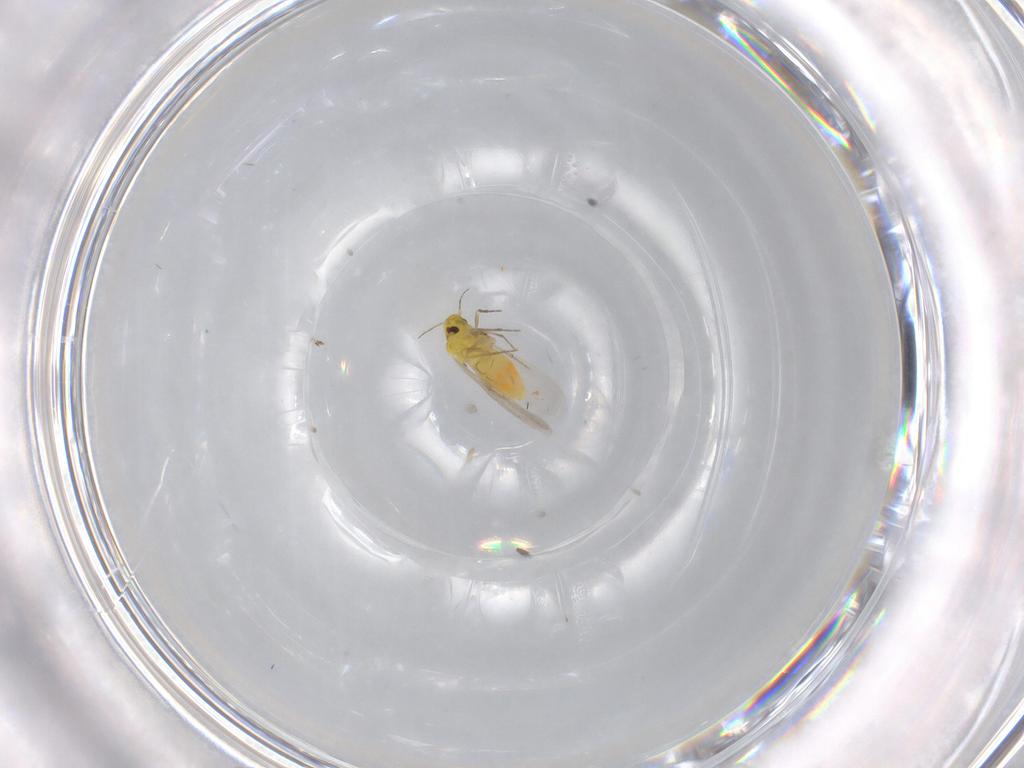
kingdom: Animalia
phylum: Arthropoda
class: Insecta
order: Hemiptera
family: Aleyrodidae
